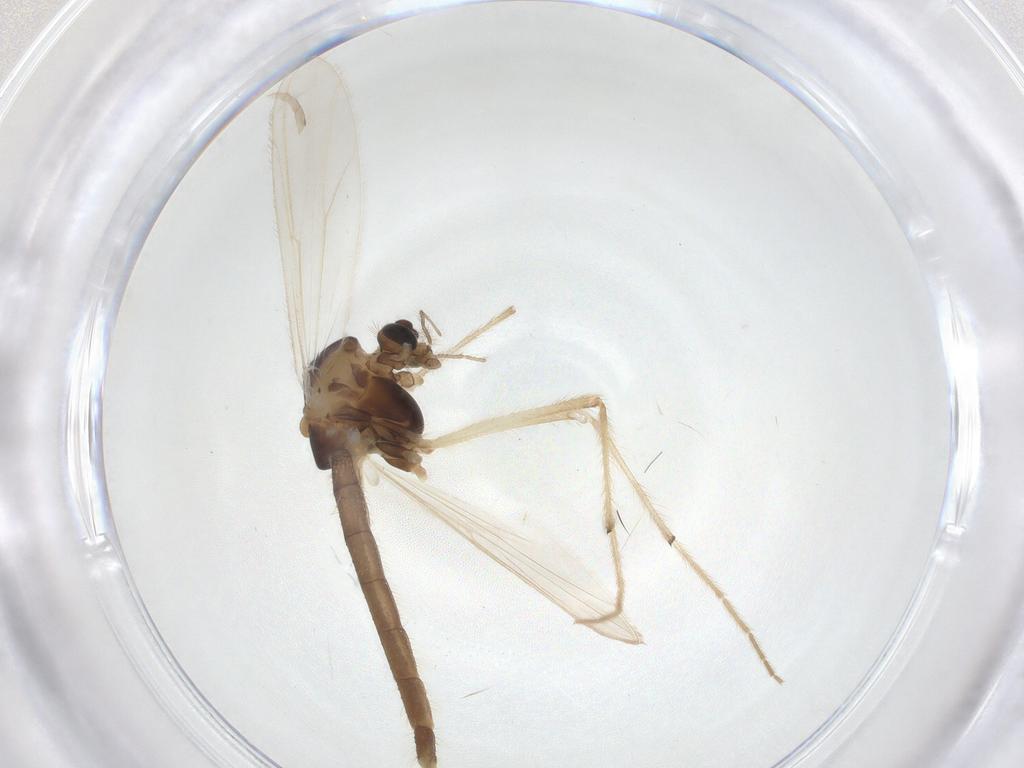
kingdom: Animalia
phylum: Arthropoda
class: Insecta
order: Diptera
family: Chironomidae
